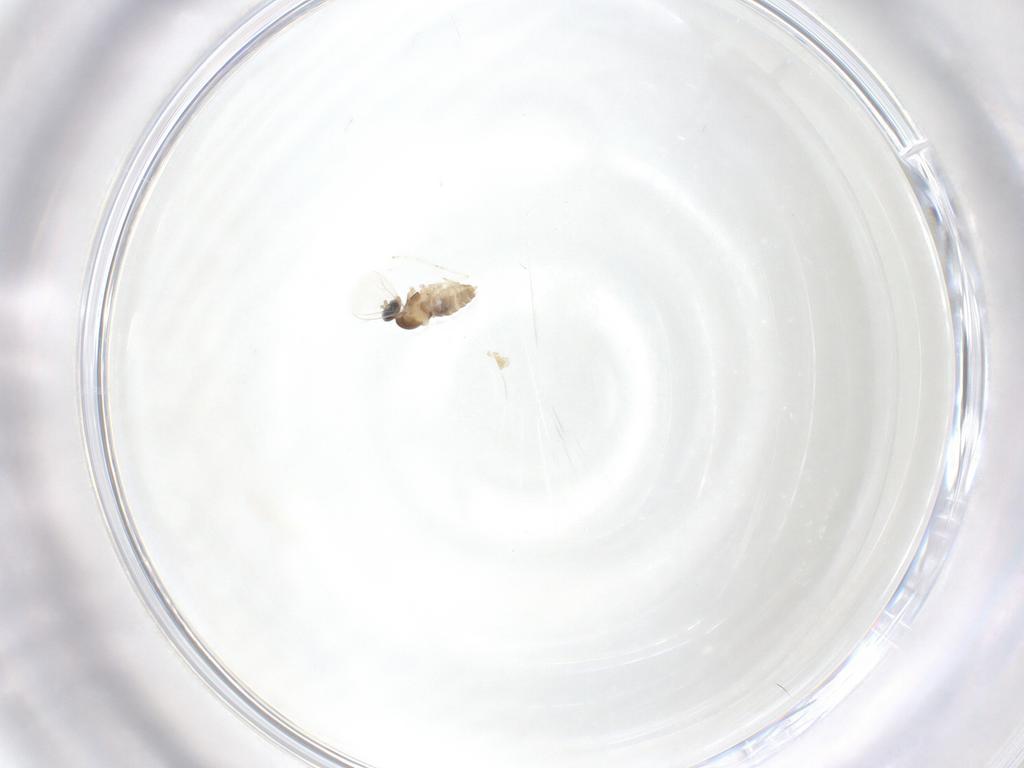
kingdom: Animalia
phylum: Arthropoda
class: Insecta
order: Diptera
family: Cecidomyiidae
